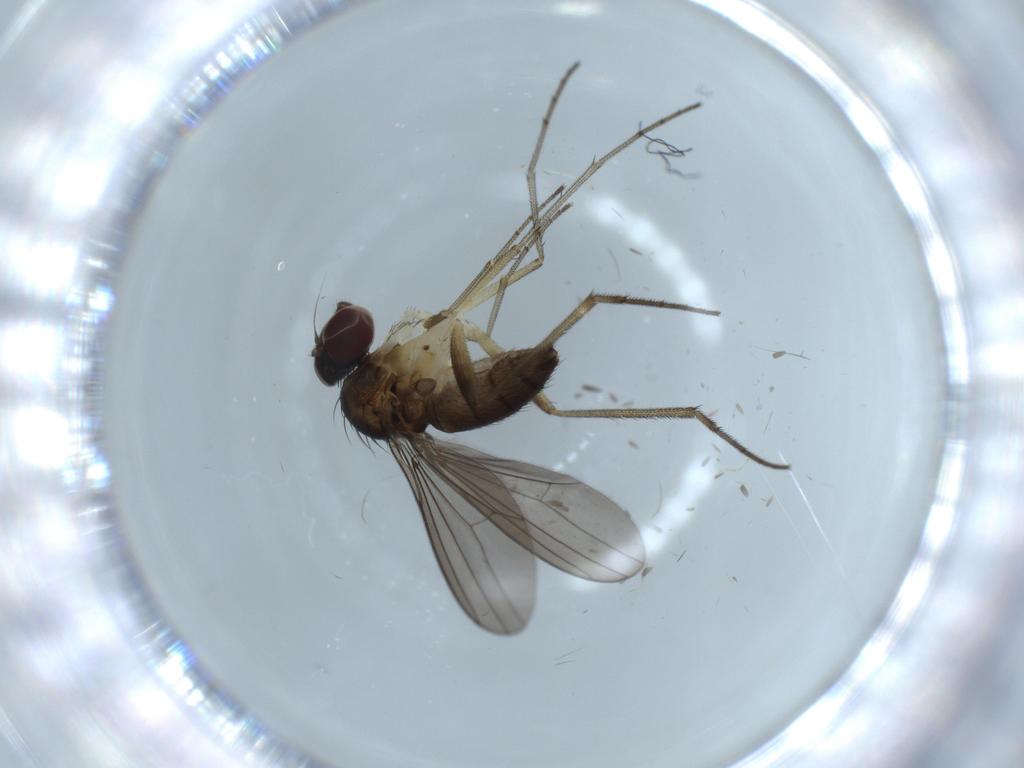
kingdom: Animalia
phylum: Arthropoda
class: Insecta
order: Diptera
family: Dolichopodidae
